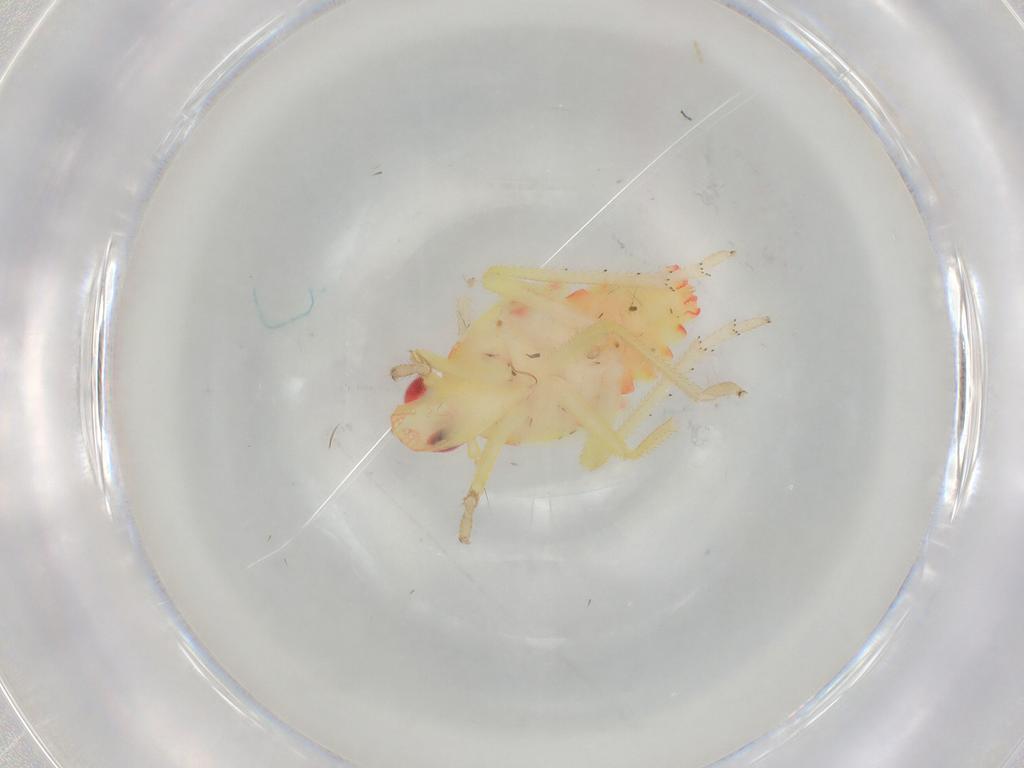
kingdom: Animalia
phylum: Arthropoda
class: Insecta
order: Hemiptera
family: Tropiduchidae
